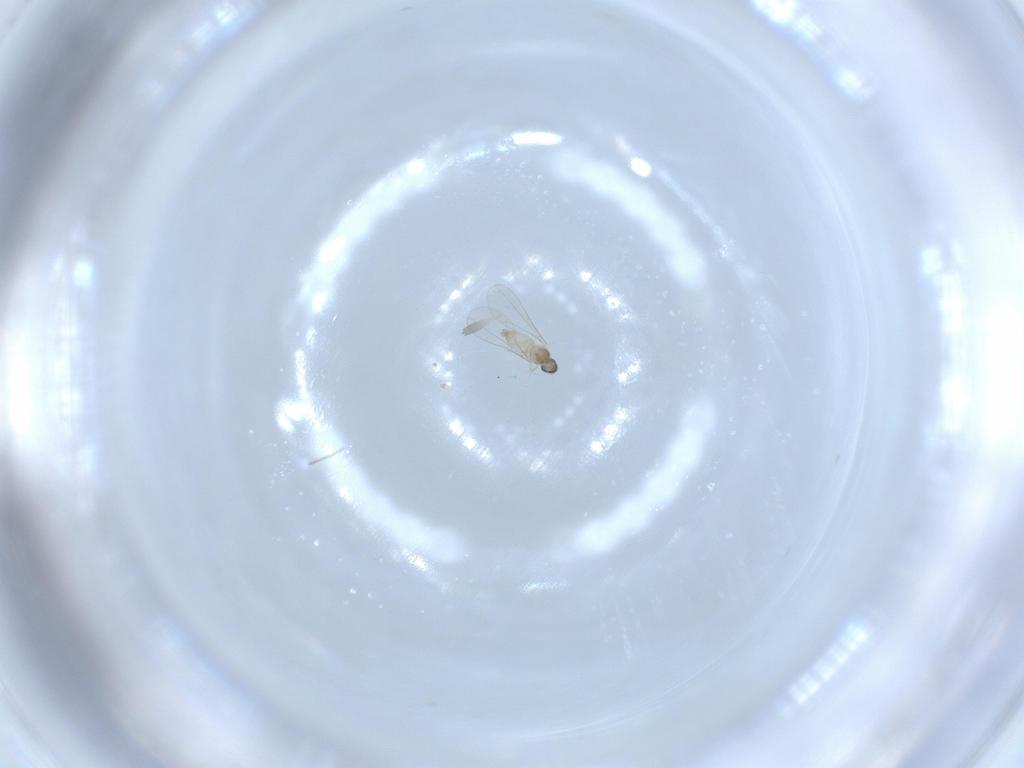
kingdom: Animalia
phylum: Arthropoda
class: Insecta
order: Diptera
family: Cecidomyiidae
